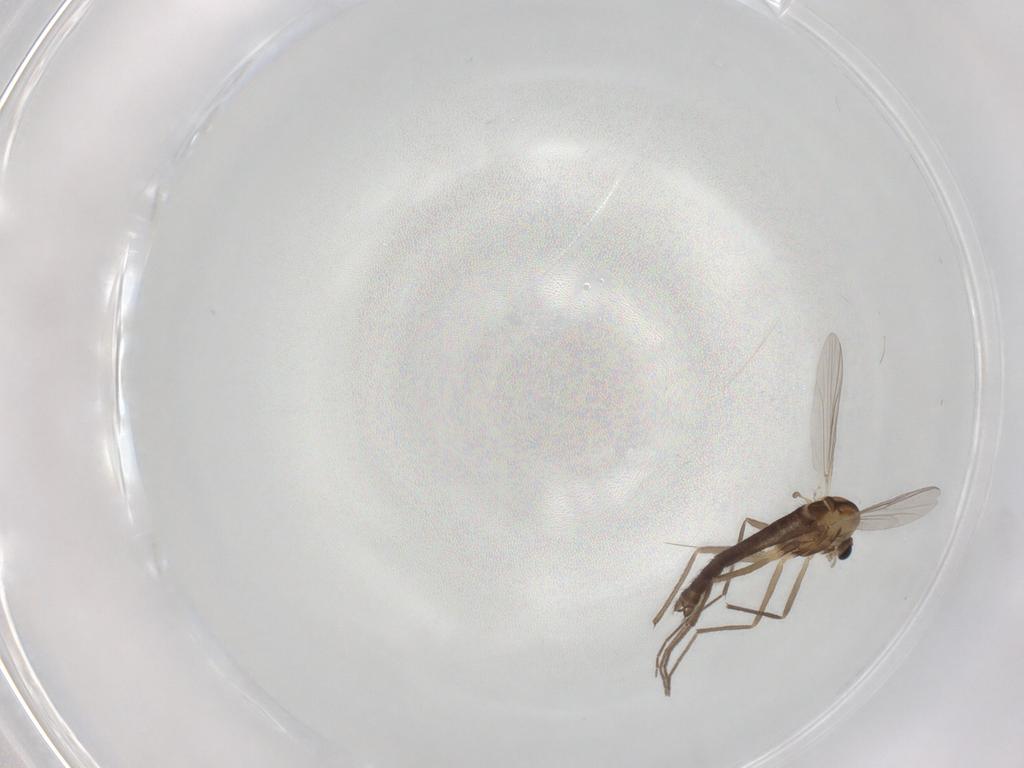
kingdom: Animalia
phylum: Arthropoda
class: Insecta
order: Diptera
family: Chironomidae
